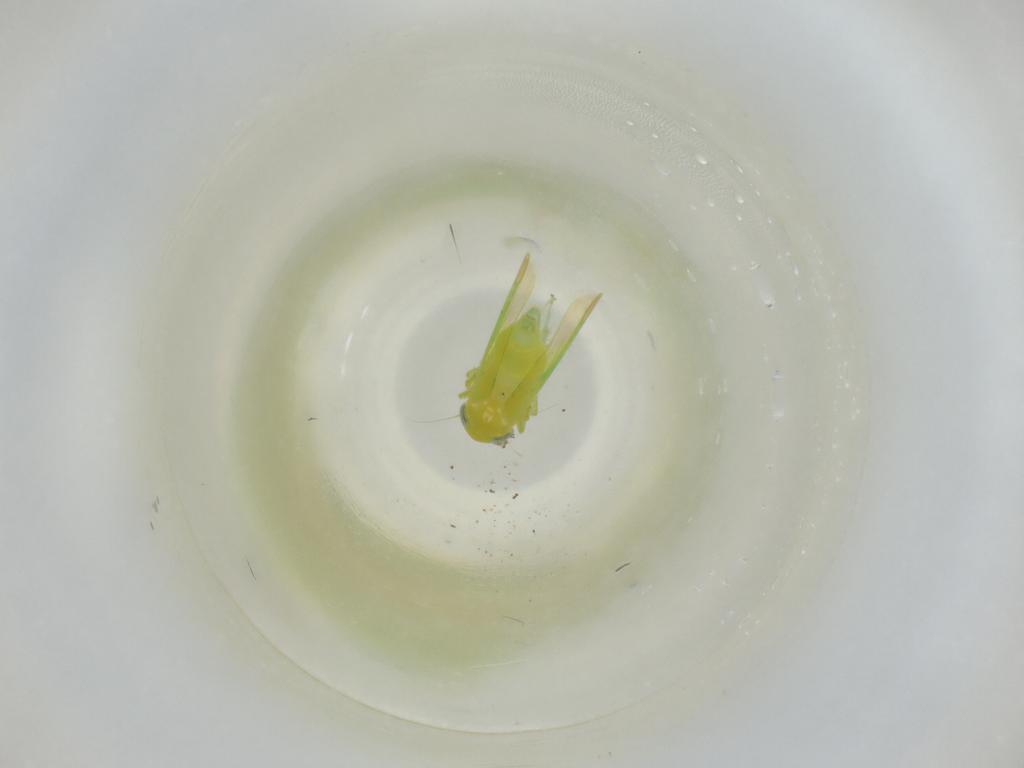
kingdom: Animalia
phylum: Arthropoda
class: Insecta
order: Hemiptera
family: Cicadellidae
